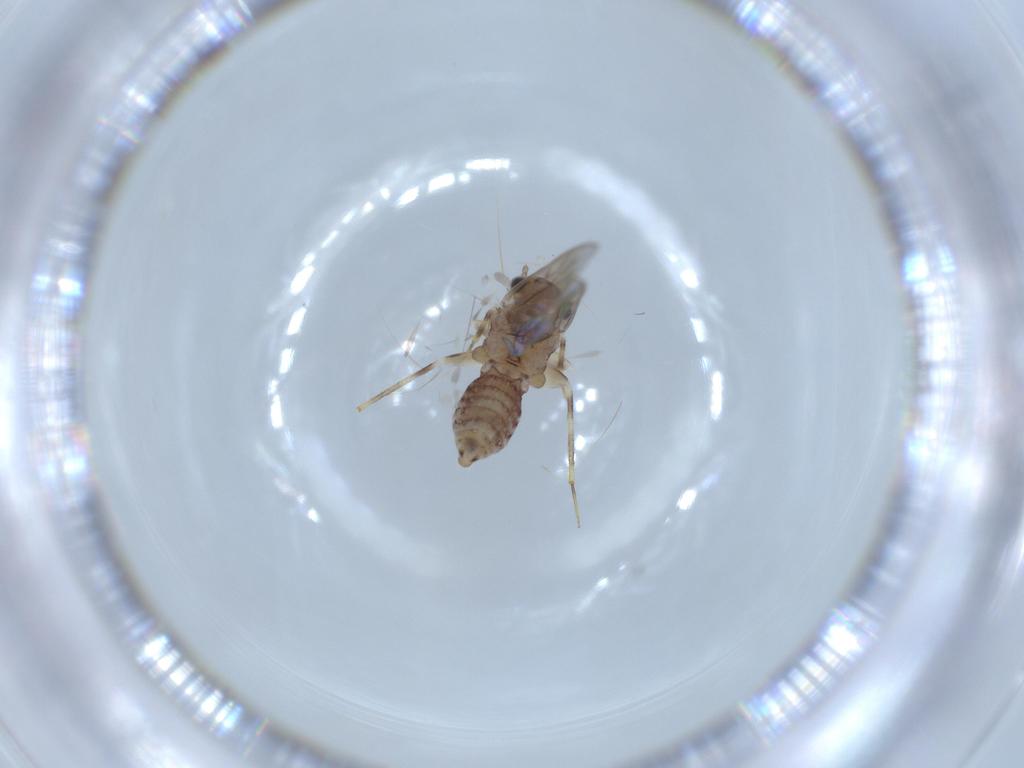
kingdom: Animalia
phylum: Arthropoda
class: Insecta
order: Psocodea
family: Lepidopsocidae
